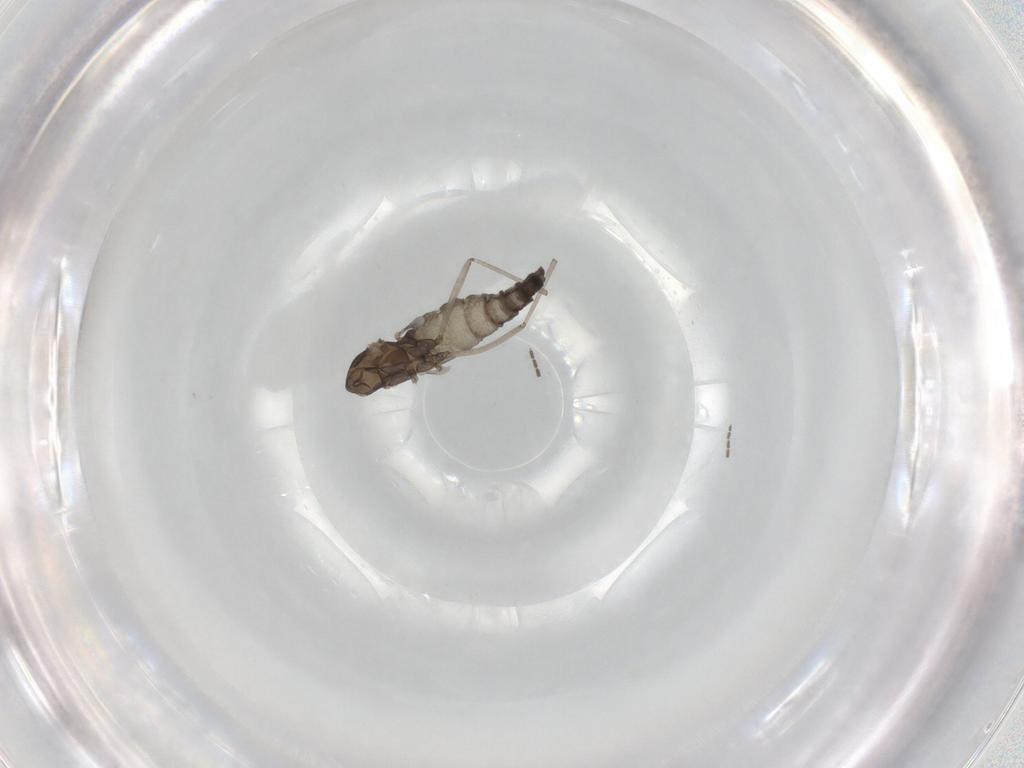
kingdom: Animalia
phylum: Arthropoda
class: Insecta
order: Diptera
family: Cecidomyiidae
